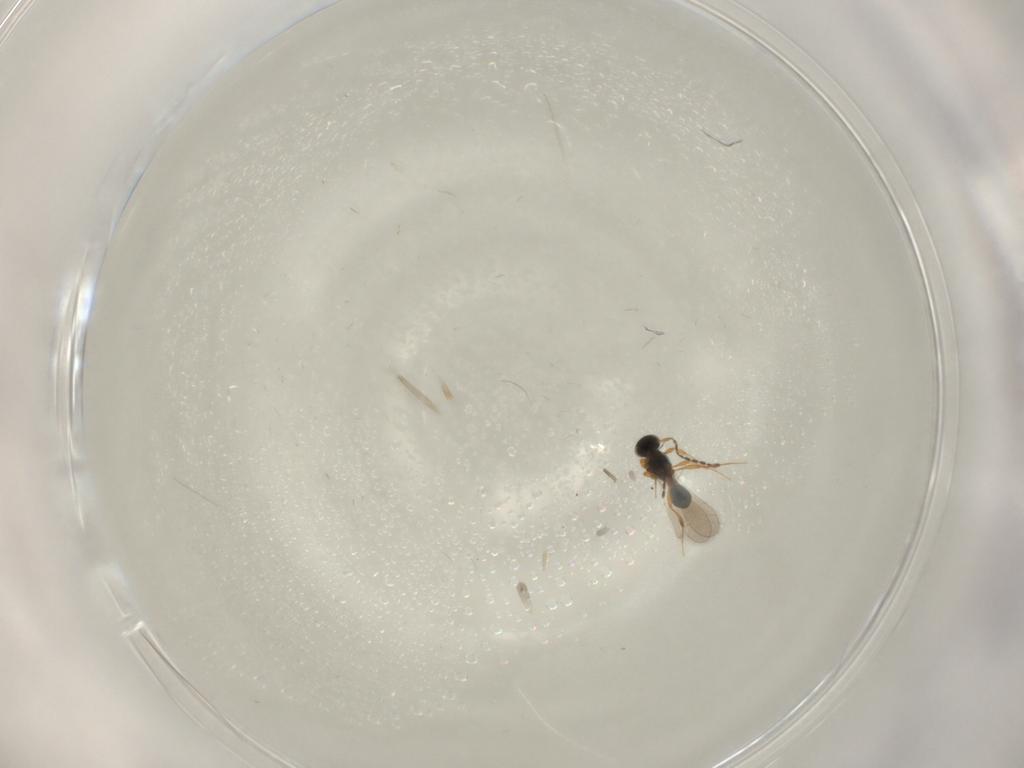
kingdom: Animalia
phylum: Arthropoda
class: Insecta
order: Hymenoptera
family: Platygastridae
